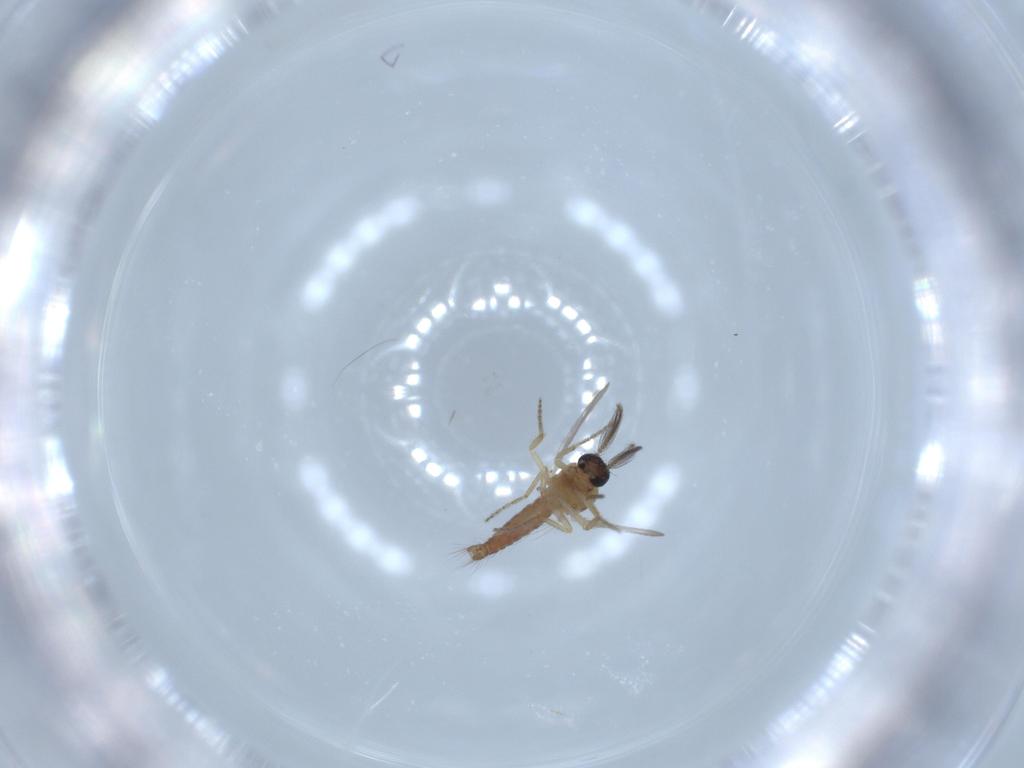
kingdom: Animalia
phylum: Arthropoda
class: Insecta
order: Diptera
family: Ceratopogonidae
